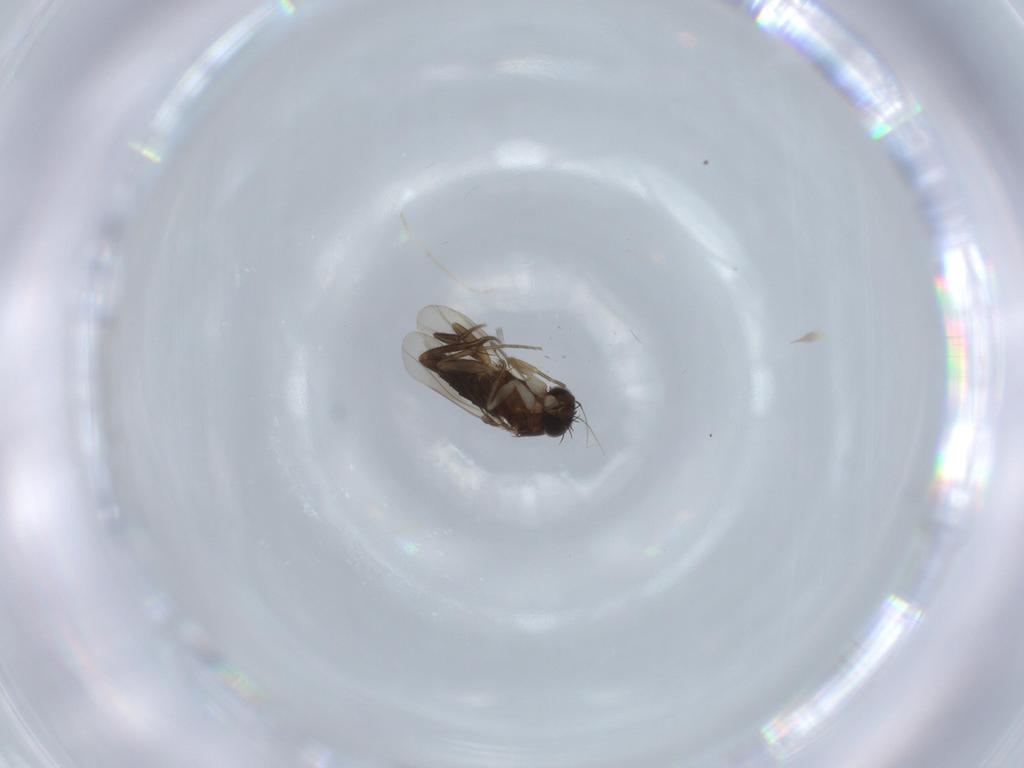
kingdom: Animalia
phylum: Arthropoda
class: Insecta
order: Diptera
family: Phoridae
